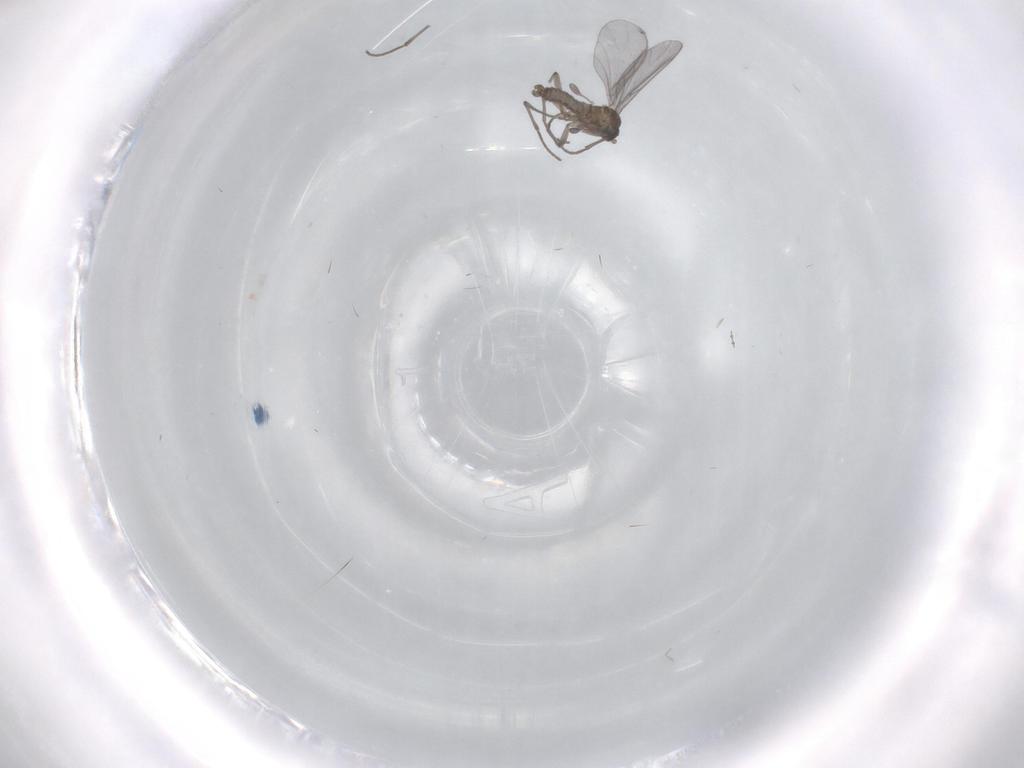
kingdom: Animalia
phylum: Arthropoda
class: Insecta
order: Diptera
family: Sciaridae
